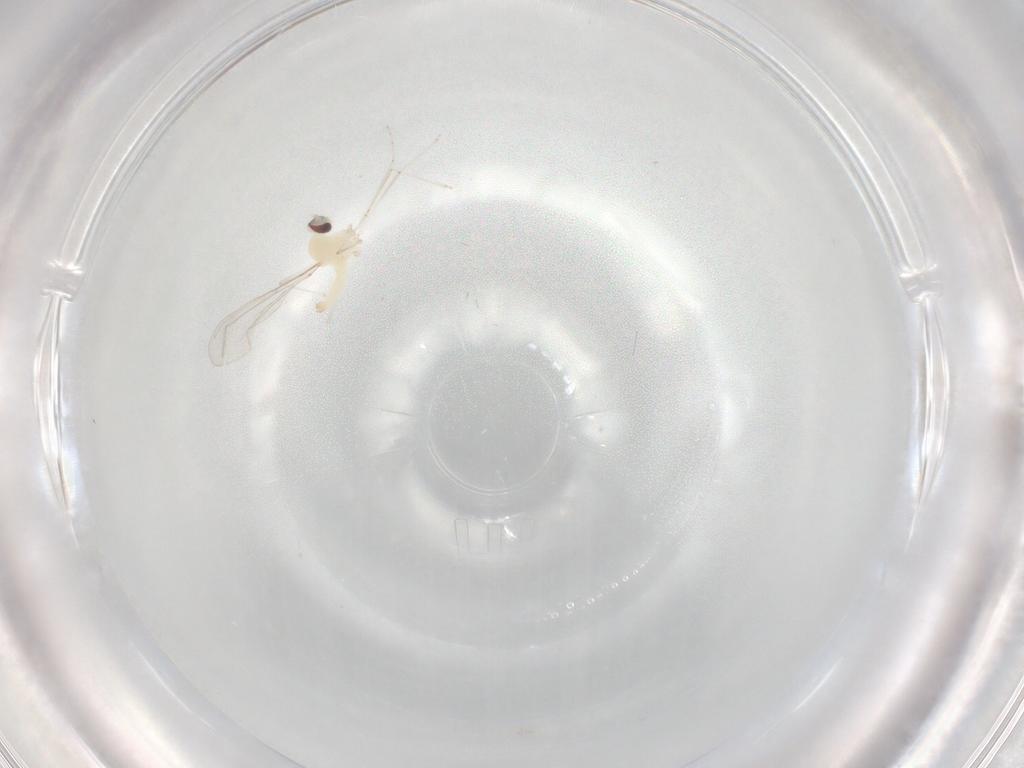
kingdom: Animalia
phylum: Arthropoda
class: Insecta
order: Diptera
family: Cecidomyiidae
